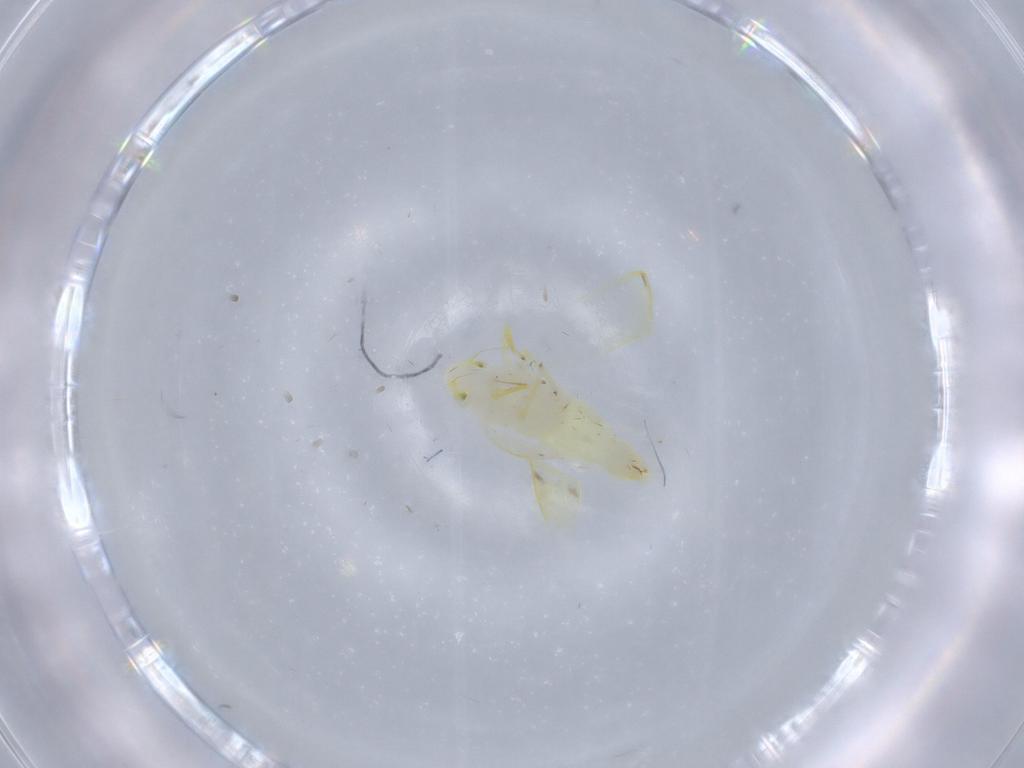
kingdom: Animalia
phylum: Arthropoda
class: Insecta
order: Hemiptera
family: Cicadellidae
